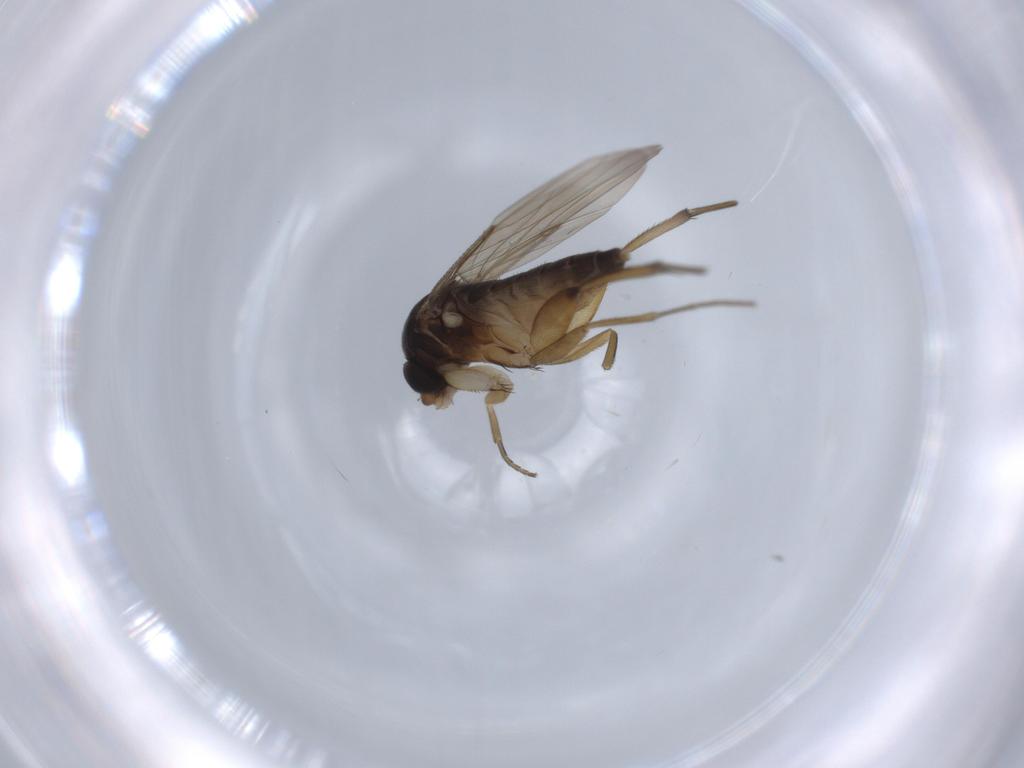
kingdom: Animalia
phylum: Arthropoda
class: Insecta
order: Diptera
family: Phoridae
